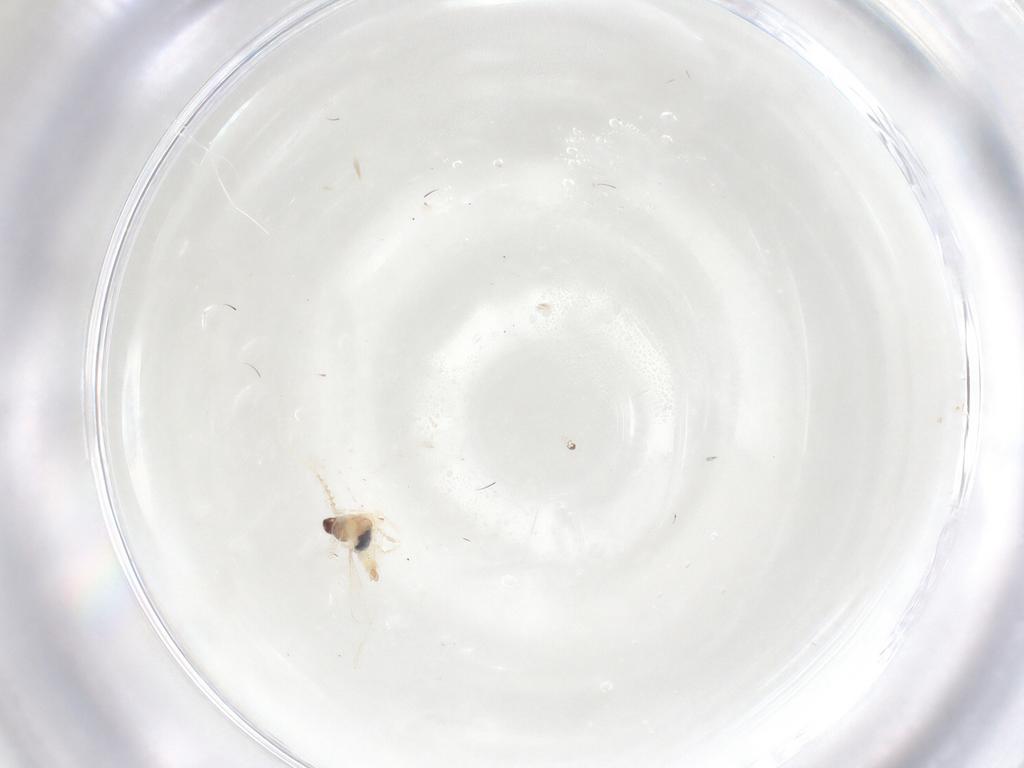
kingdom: Animalia
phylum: Arthropoda
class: Insecta
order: Diptera
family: Cecidomyiidae
